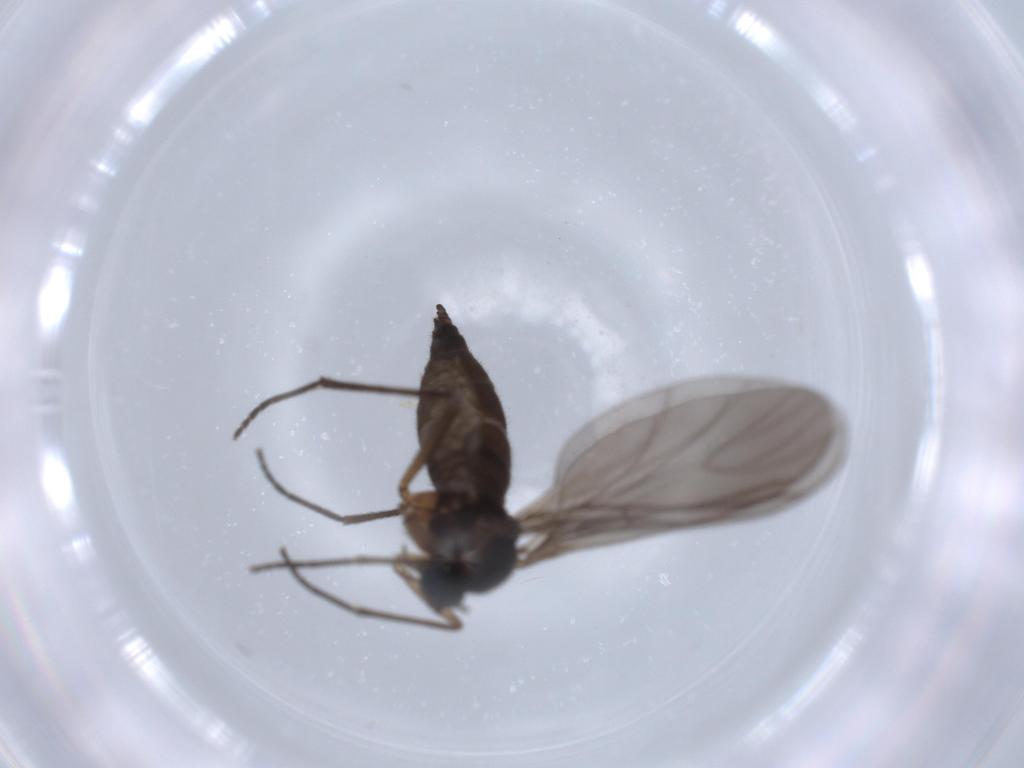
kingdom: Animalia
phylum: Arthropoda
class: Insecta
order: Diptera
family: Sciaridae
